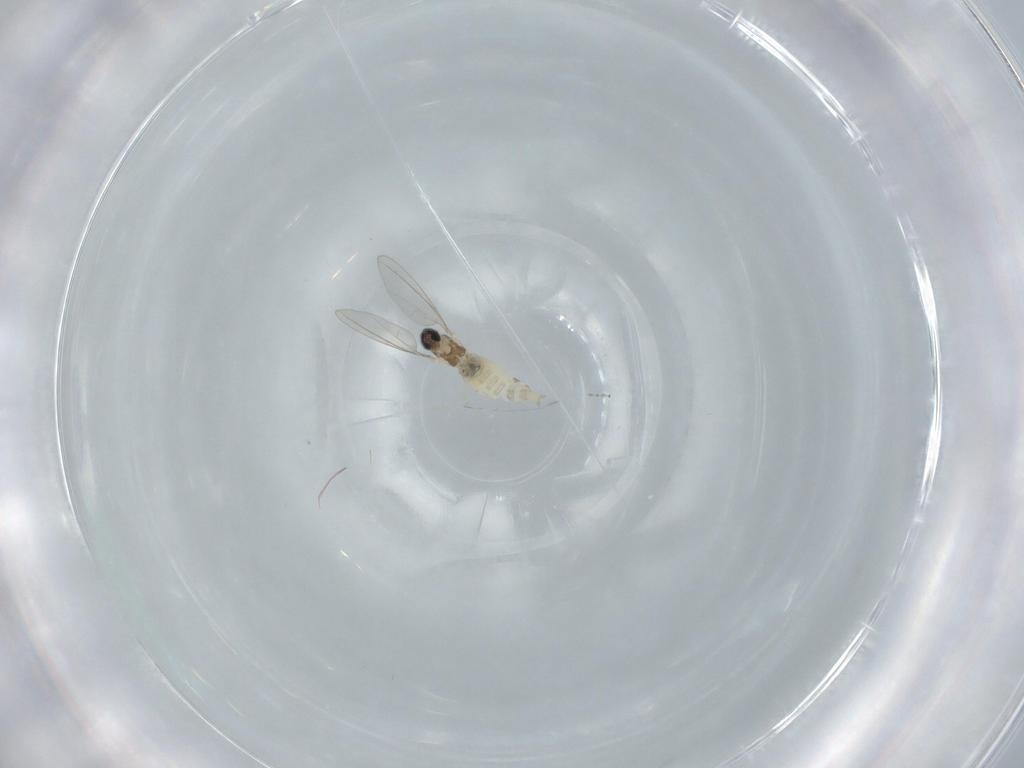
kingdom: Animalia
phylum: Arthropoda
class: Insecta
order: Diptera
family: Cecidomyiidae
